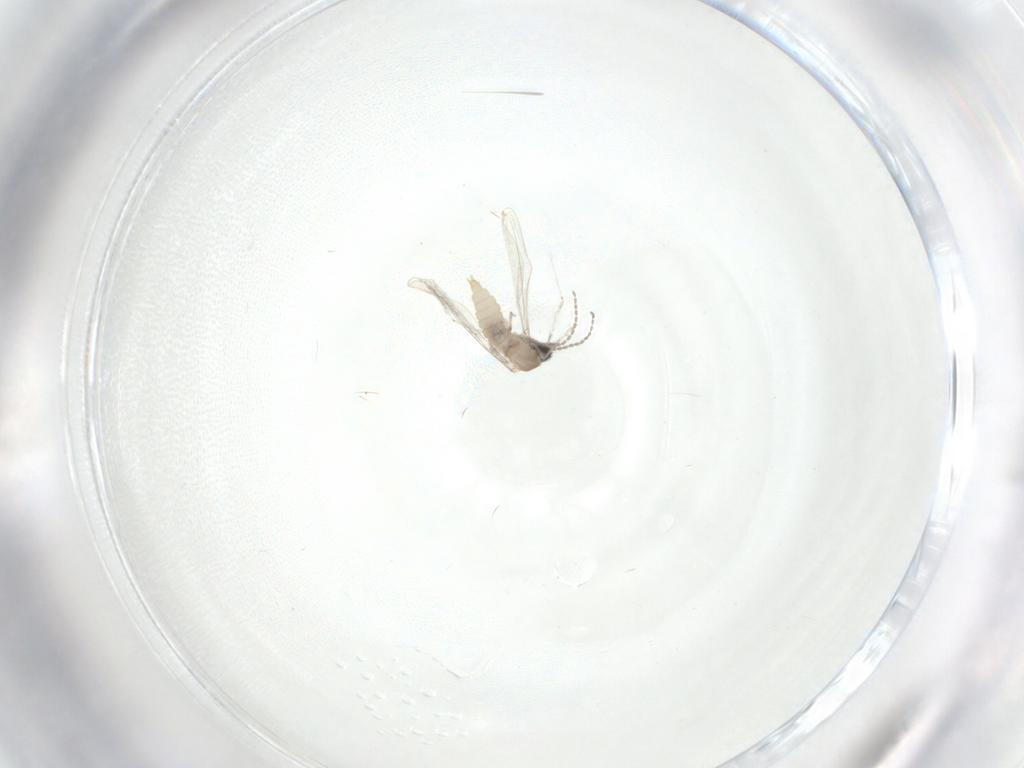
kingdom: Animalia
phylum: Arthropoda
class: Insecta
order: Diptera
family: Cecidomyiidae
